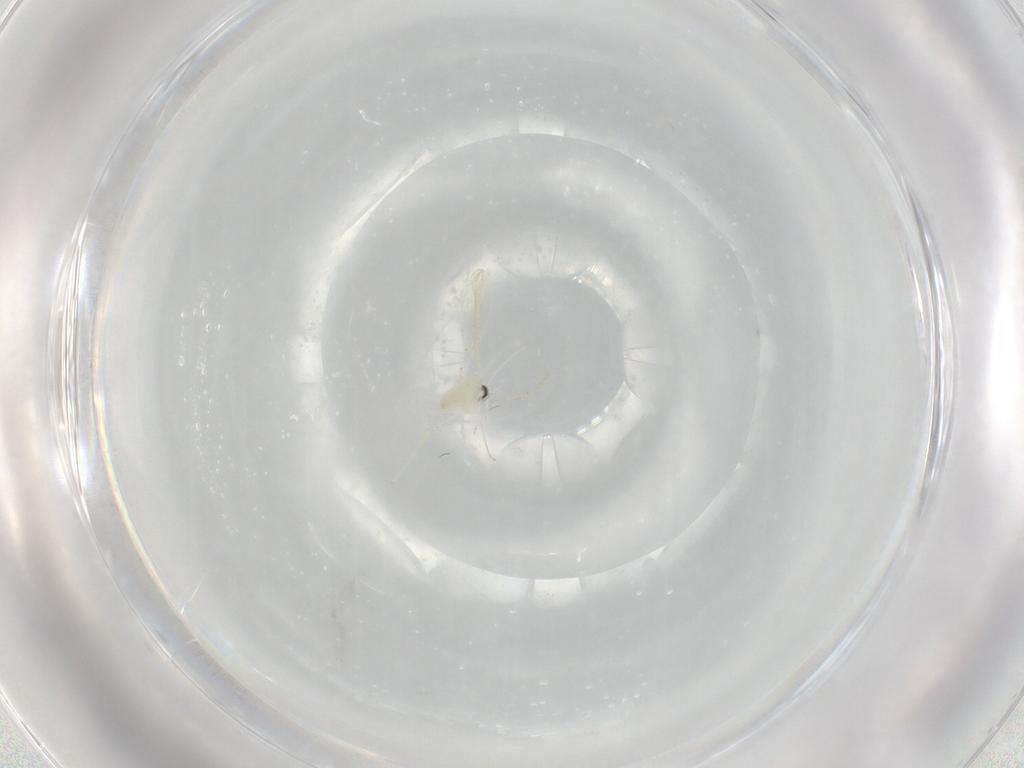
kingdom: Animalia
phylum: Arthropoda
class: Insecta
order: Diptera
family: Cecidomyiidae
